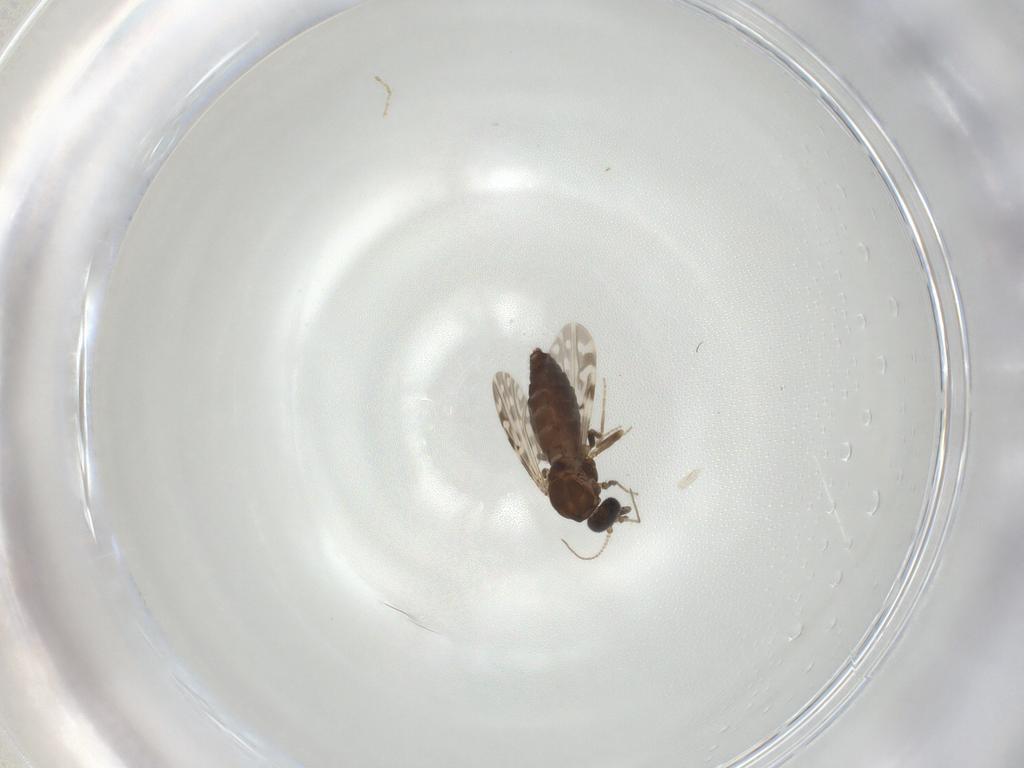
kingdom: Animalia
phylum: Arthropoda
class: Insecta
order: Diptera
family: Ceratopogonidae
